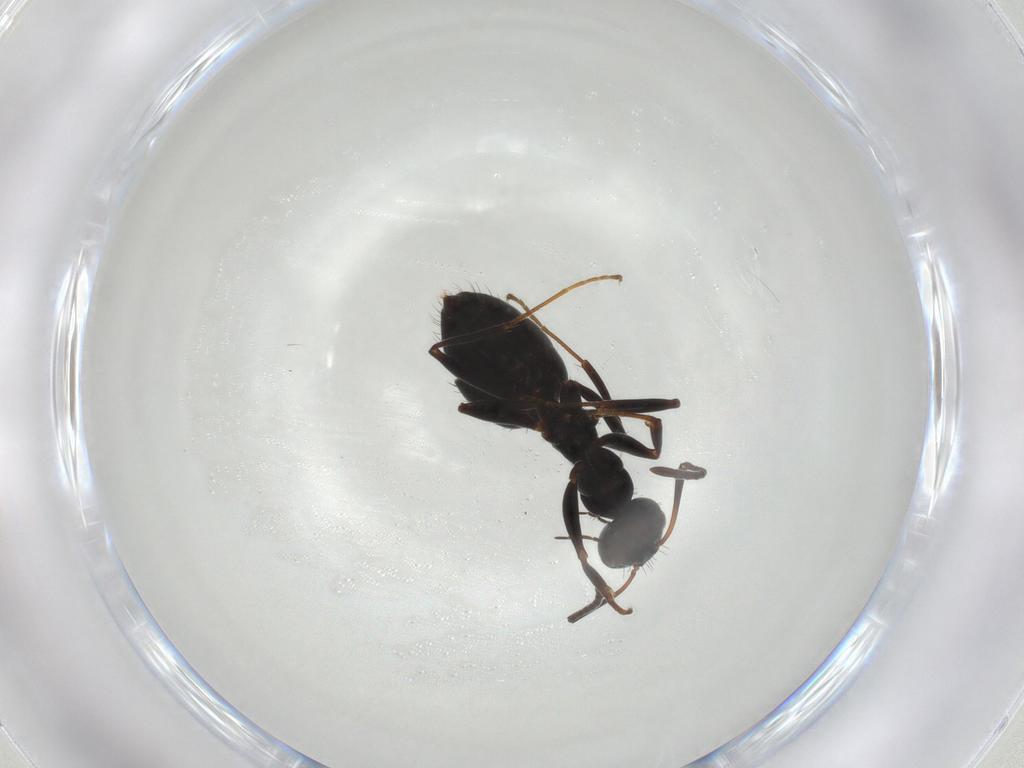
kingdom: Animalia
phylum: Arthropoda
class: Insecta
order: Hymenoptera
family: Formicidae
